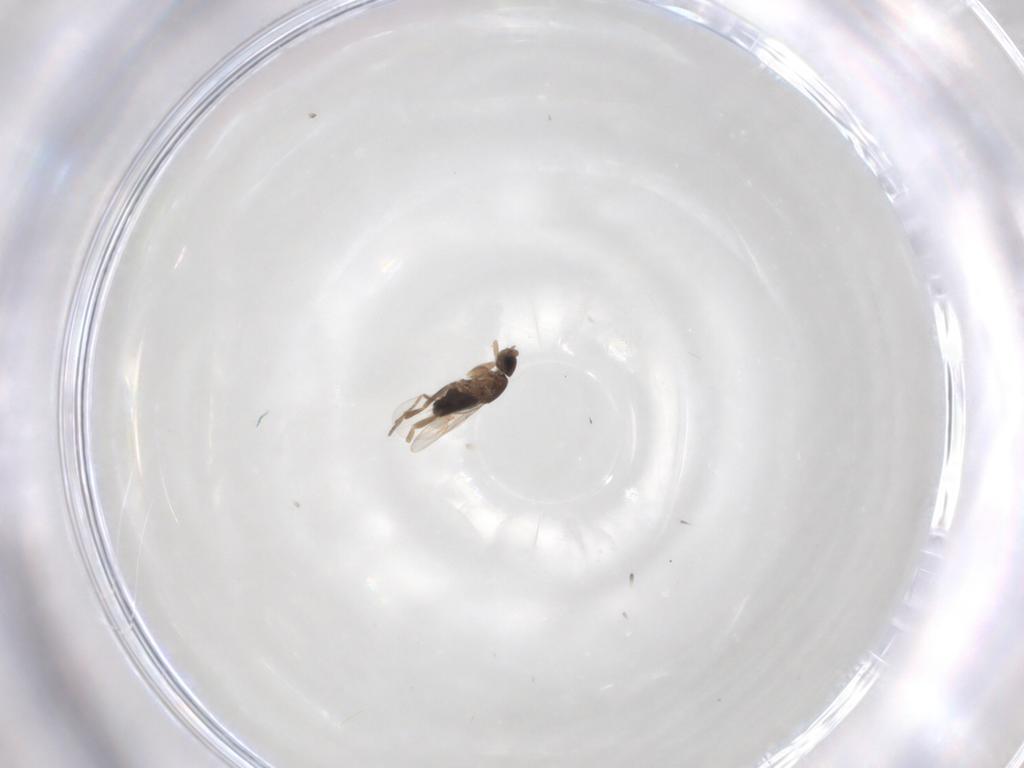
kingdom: Animalia
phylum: Arthropoda
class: Insecta
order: Diptera
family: Phoridae
